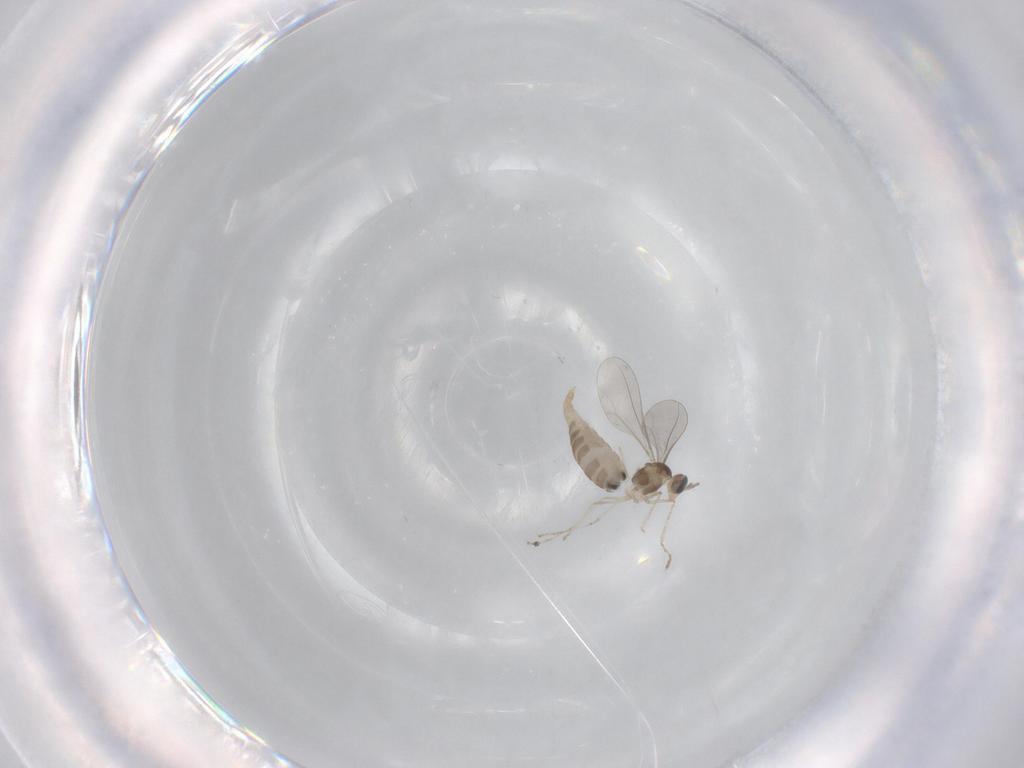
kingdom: Animalia
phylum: Arthropoda
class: Insecta
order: Diptera
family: Chironomidae
